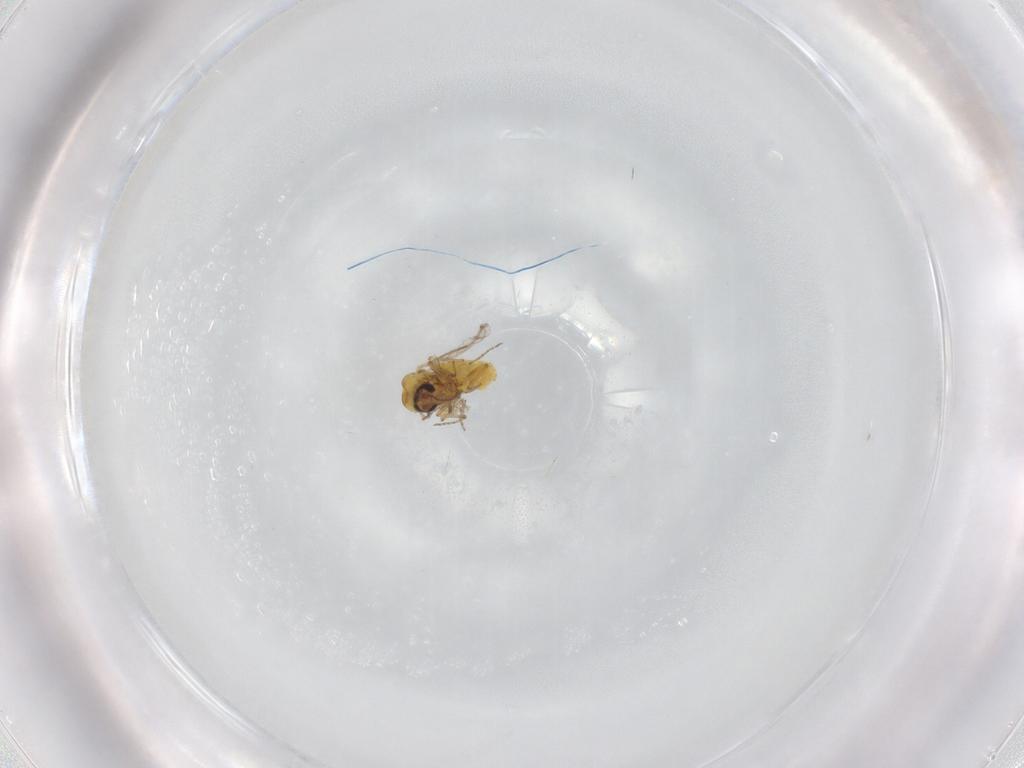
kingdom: Animalia
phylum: Arthropoda
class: Insecta
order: Diptera
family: Ceratopogonidae
